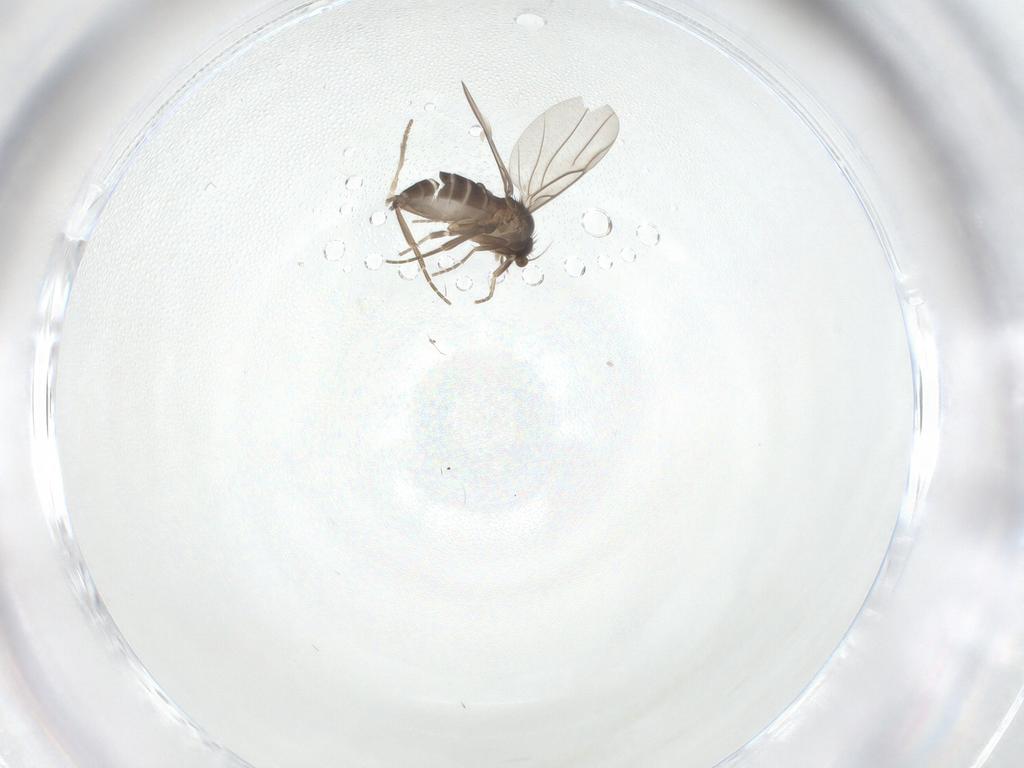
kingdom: Animalia
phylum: Arthropoda
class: Insecta
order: Diptera
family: Psychodidae
